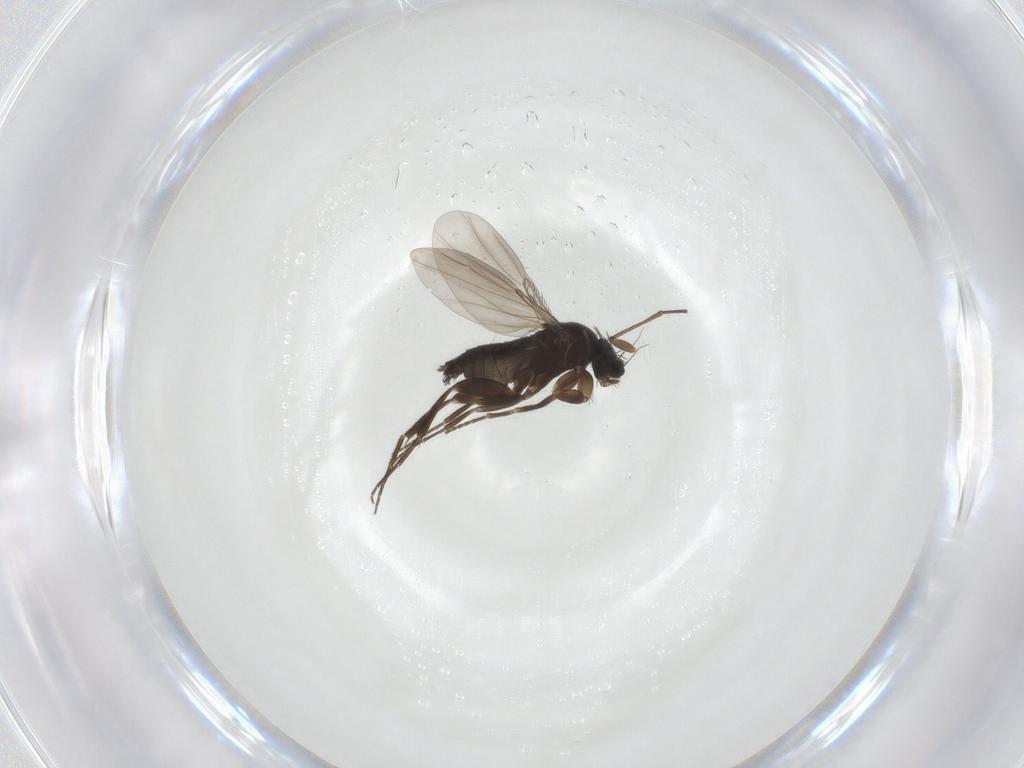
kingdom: Animalia
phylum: Arthropoda
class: Insecta
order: Diptera
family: Phoridae
